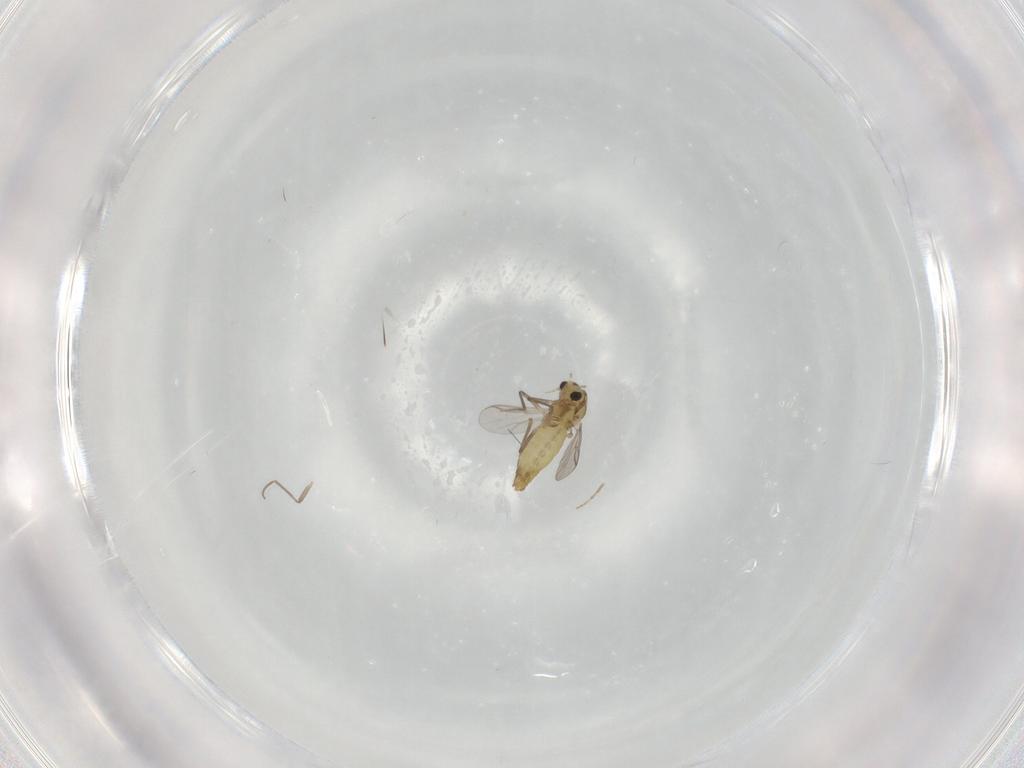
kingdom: Animalia
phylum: Arthropoda
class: Insecta
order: Diptera
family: Chironomidae
